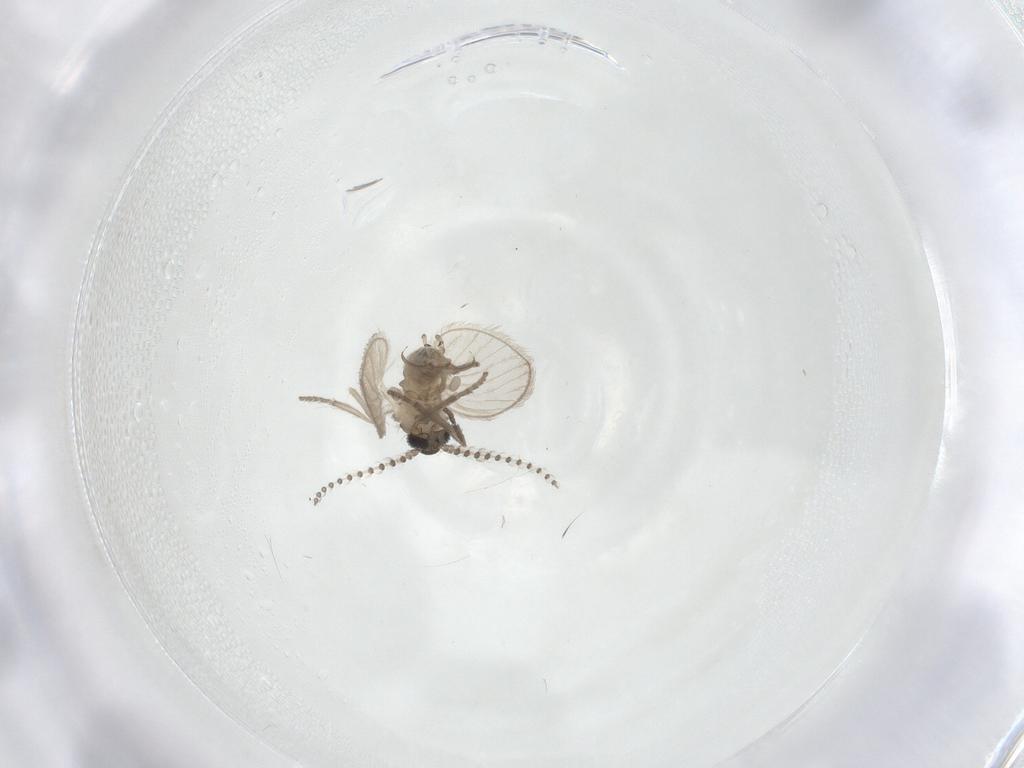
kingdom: Animalia
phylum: Arthropoda
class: Insecta
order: Diptera
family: Psychodidae
